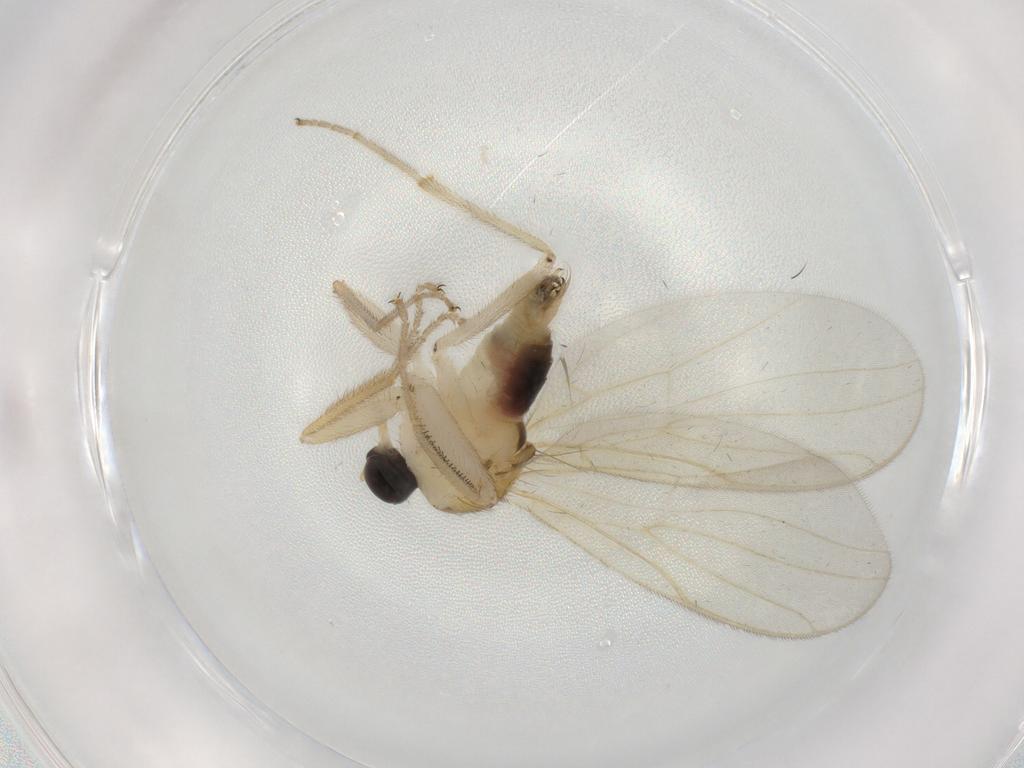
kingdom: Animalia
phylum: Arthropoda
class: Insecta
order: Diptera
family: Hybotidae
